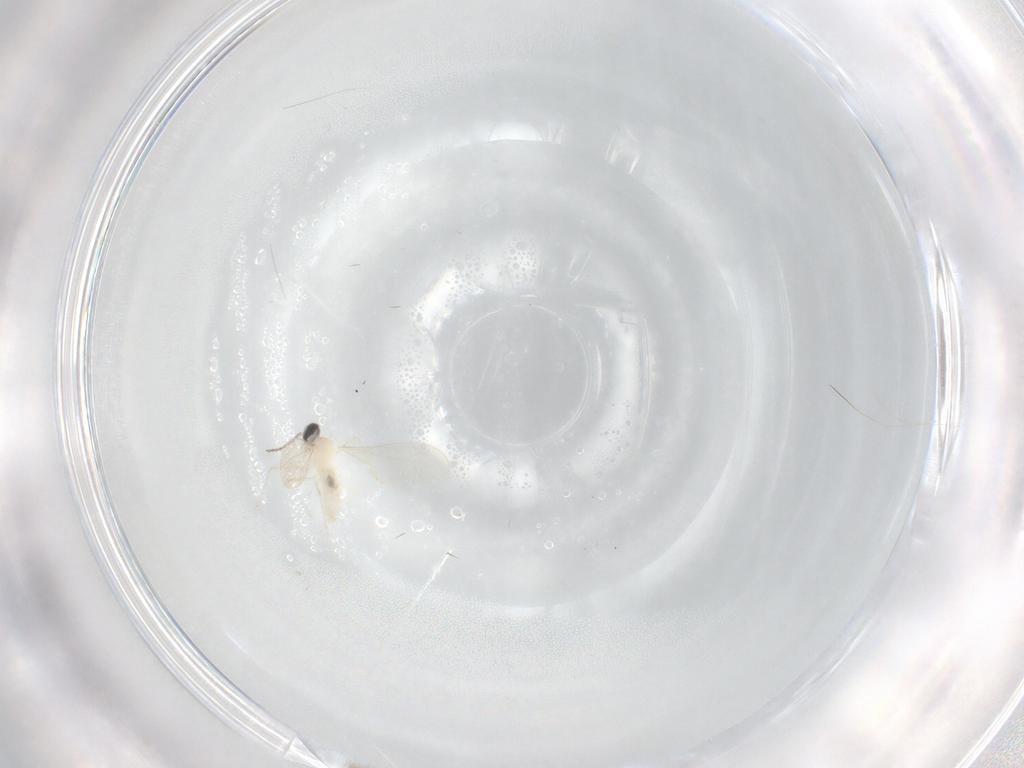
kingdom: Animalia
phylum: Arthropoda
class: Insecta
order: Diptera
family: Cecidomyiidae
